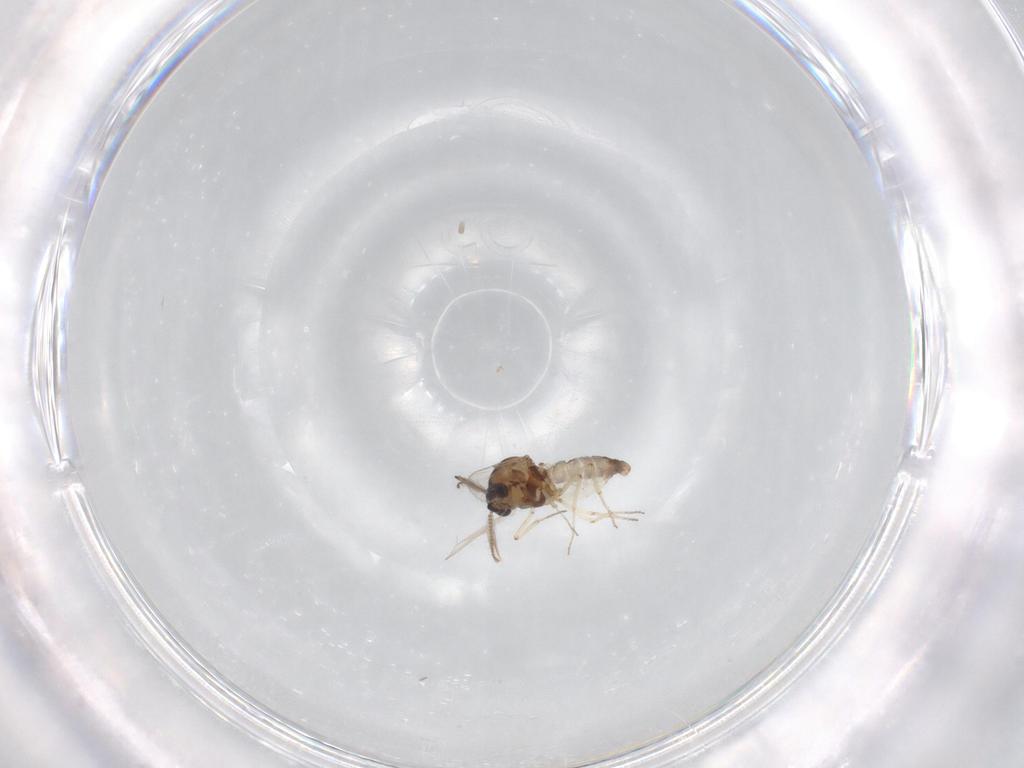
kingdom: Animalia
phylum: Arthropoda
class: Insecta
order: Diptera
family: Ceratopogonidae
